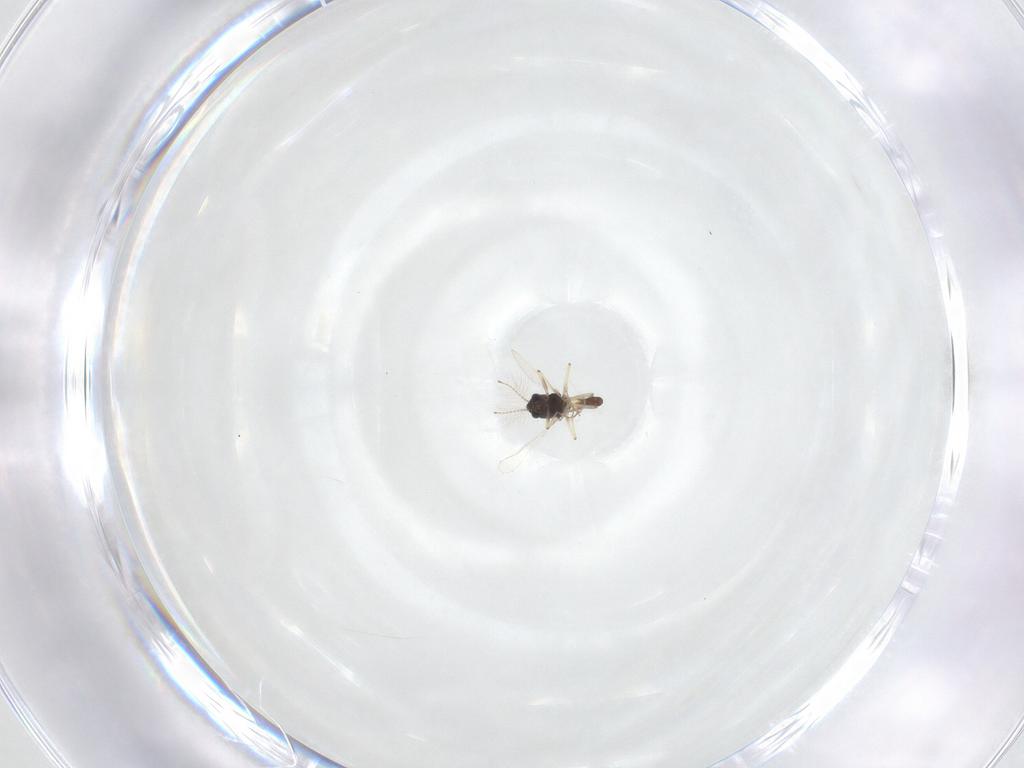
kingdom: Animalia
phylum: Arthropoda
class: Insecta
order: Diptera
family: Chironomidae
